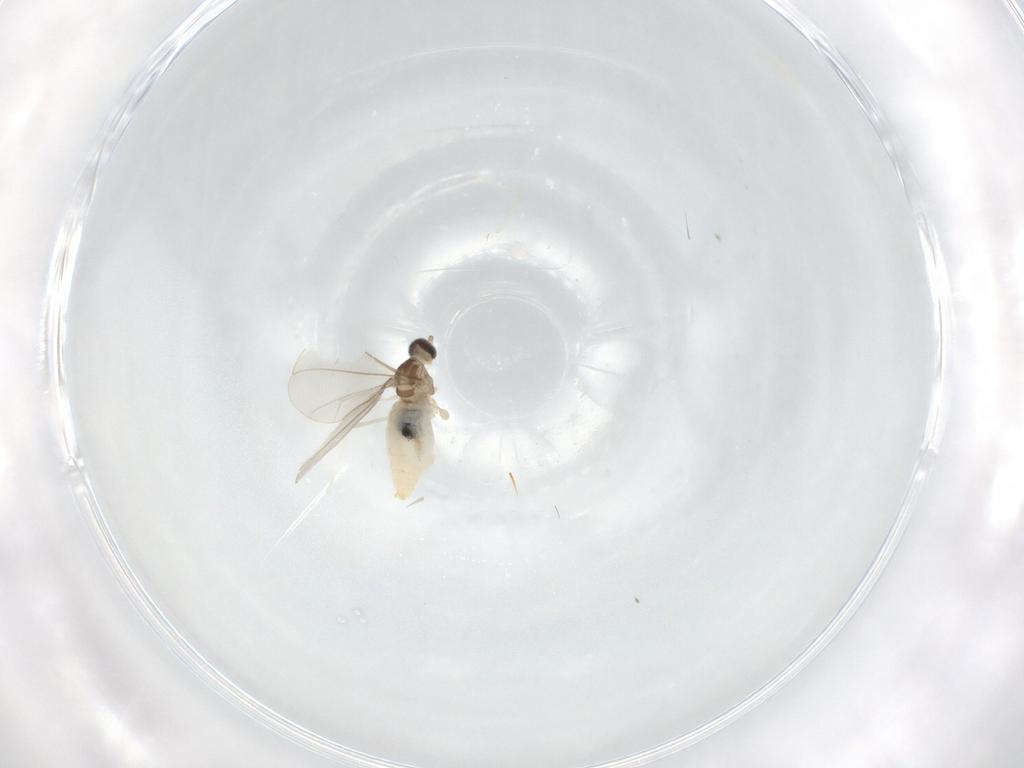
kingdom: Animalia
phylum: Arthropoda
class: Insecta
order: Diptera
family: Cecidomyiidae
